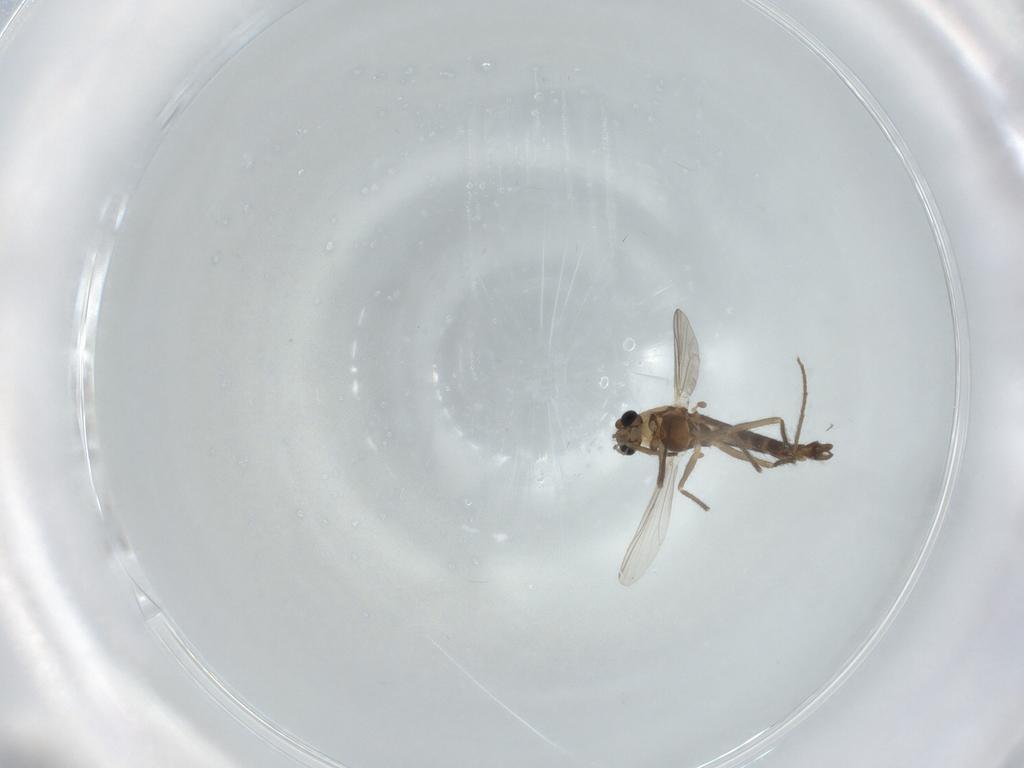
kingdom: Animalia
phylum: Arthropoda
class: Insecta
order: Diptera
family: Chironomidae
